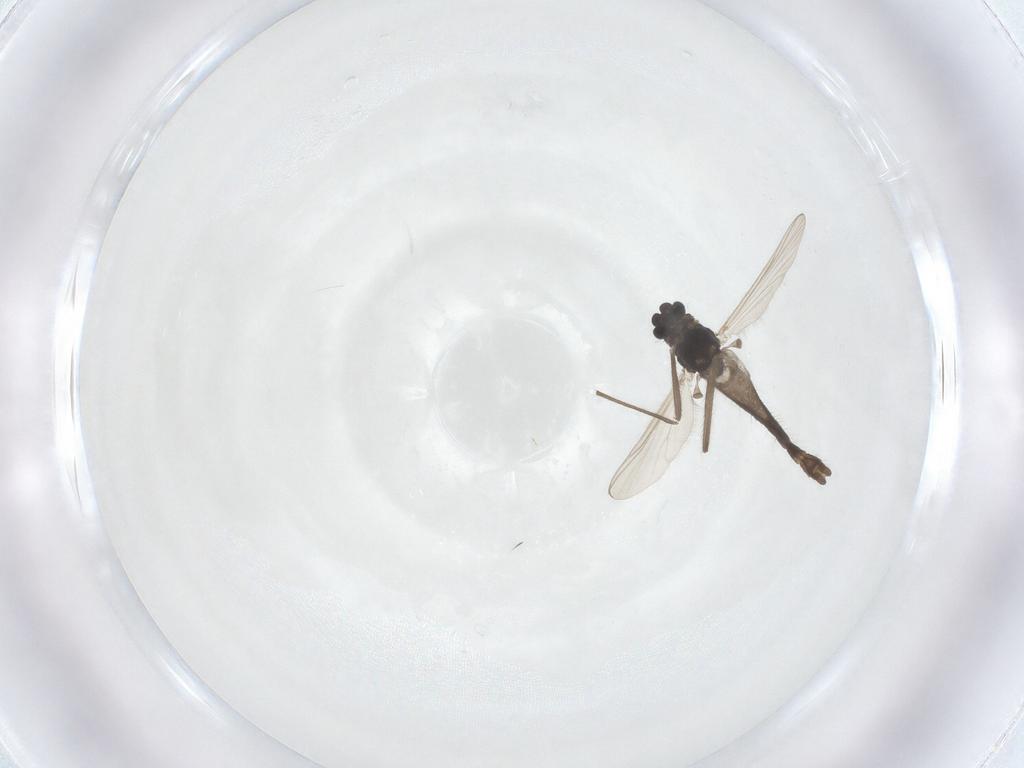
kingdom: Animalia
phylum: Arthropoda
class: Insecta
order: Diptera
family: Chironomidae
